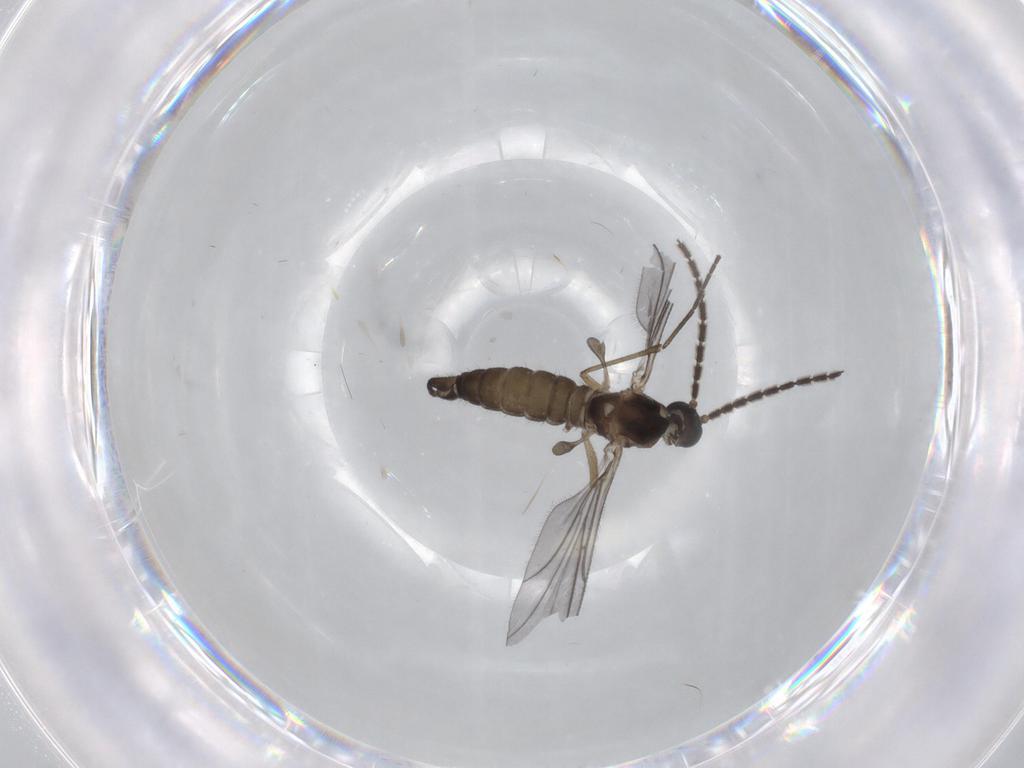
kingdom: Animalia
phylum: Arthropoda
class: Insecta
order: Diptera
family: Sciaridae
